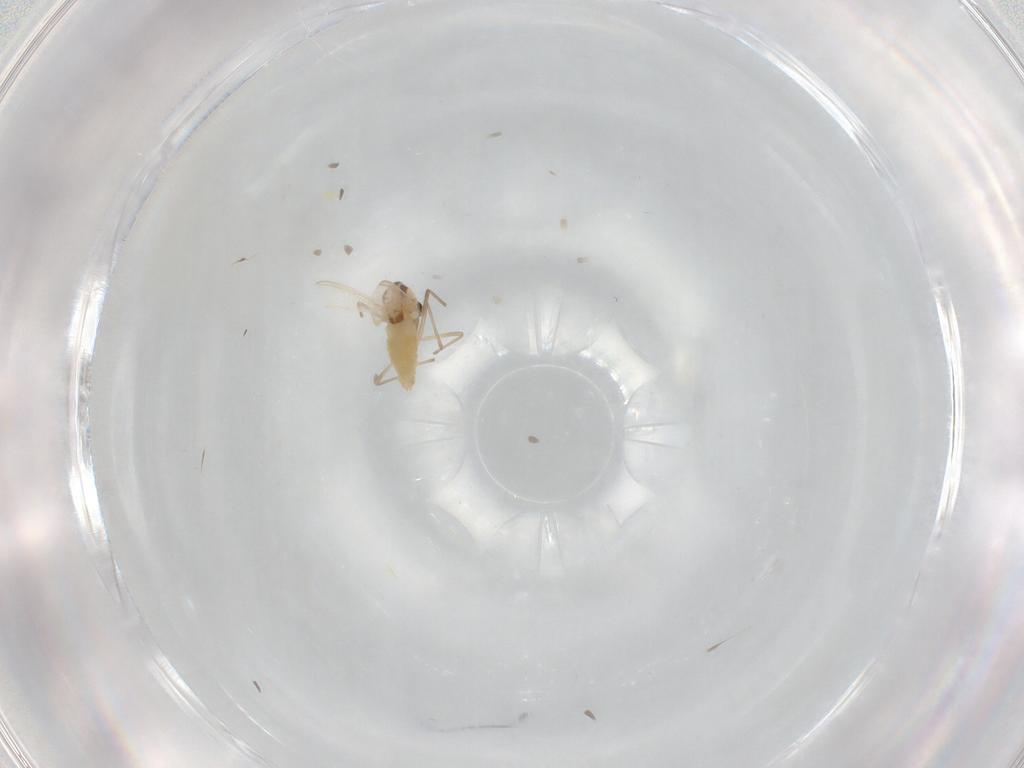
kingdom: Animalia
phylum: Arthropoda
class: Insecta
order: Diptera
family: Chironomidae
